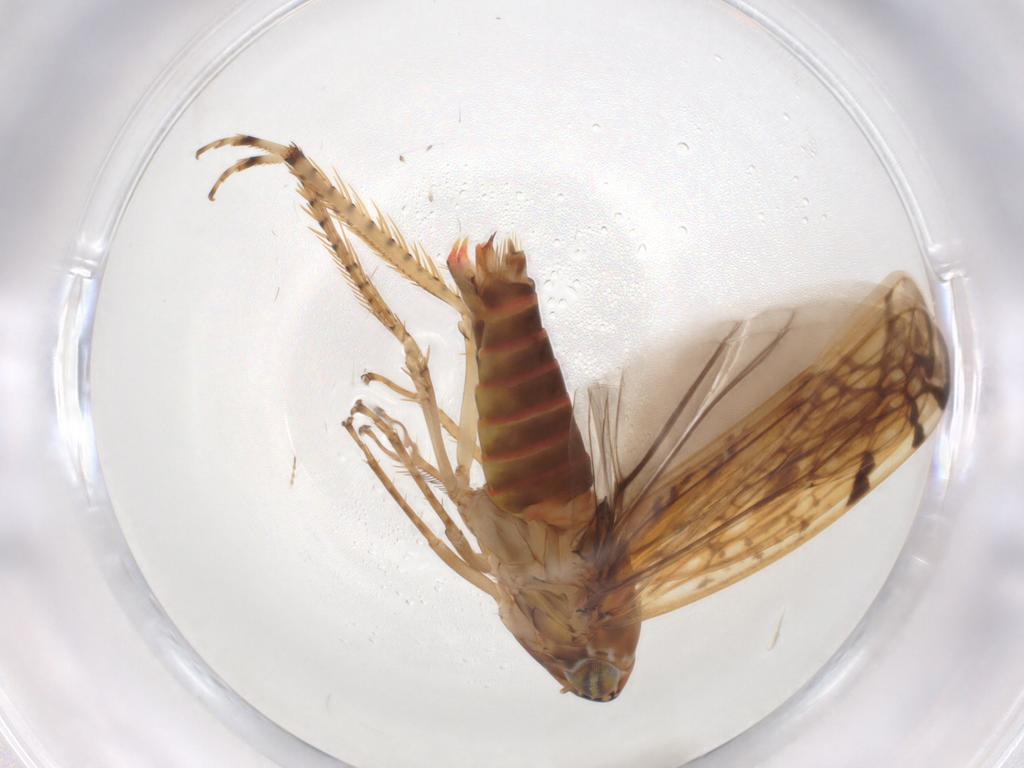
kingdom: Animalia
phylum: Arthropoda
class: Insecta
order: Hemiptera
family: Cicadellidae
